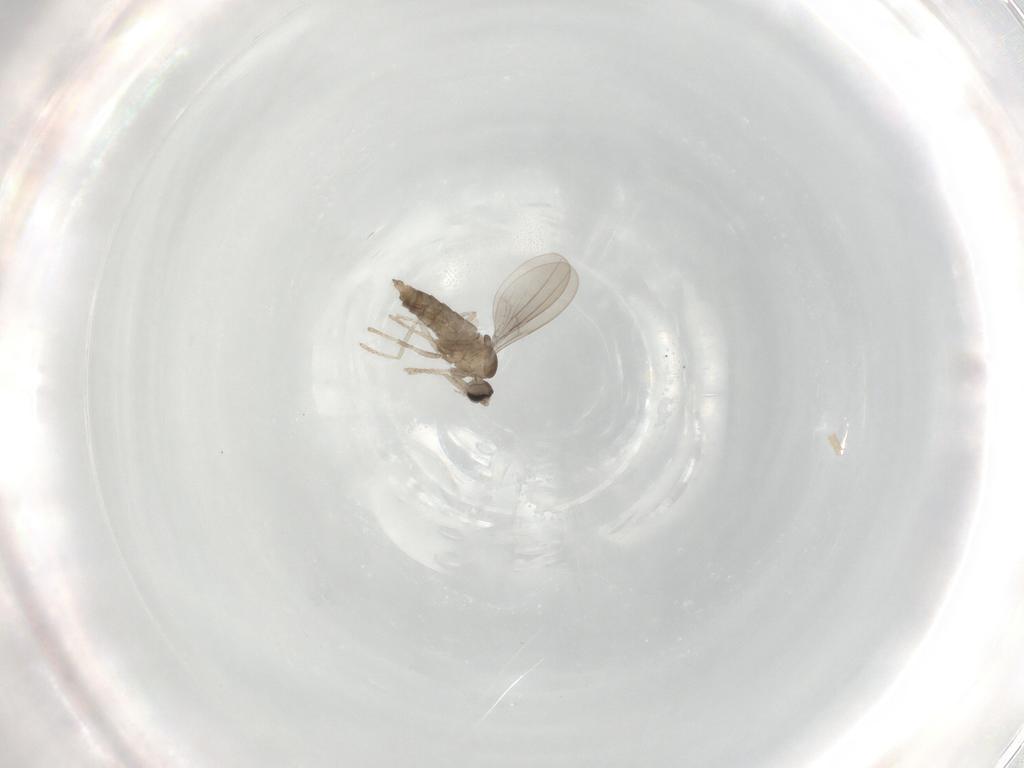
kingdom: Animalia
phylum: Arthropoda
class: Insecta
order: Diptera
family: Cecidomyiidae
